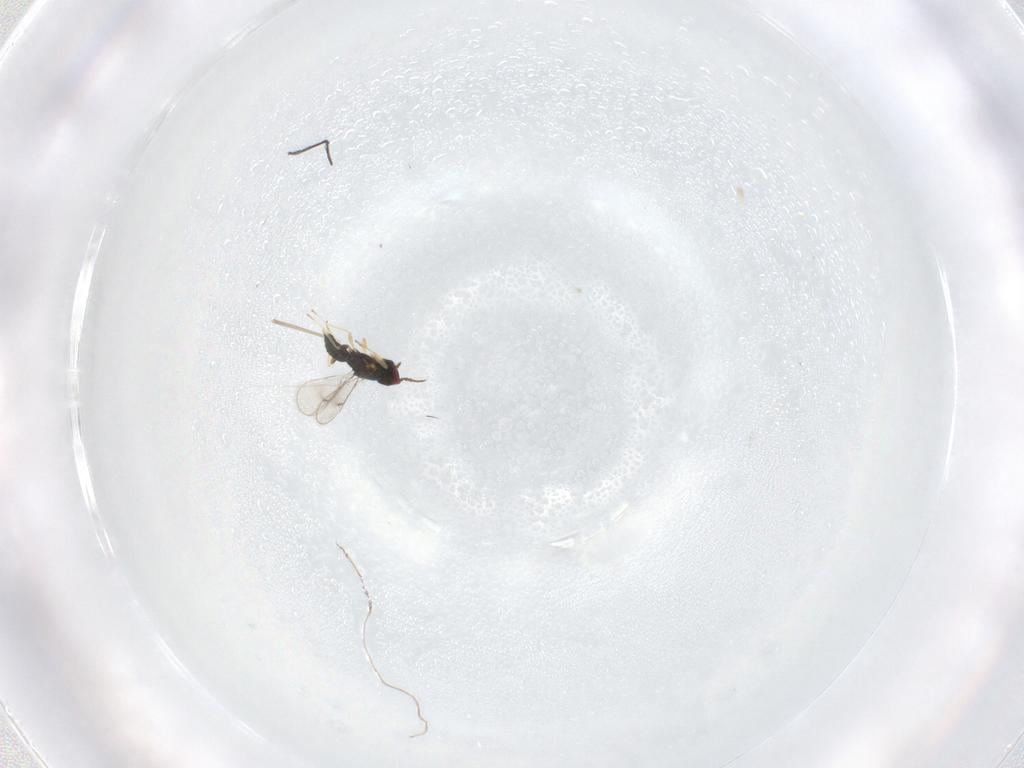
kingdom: Animalia
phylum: Arthropoda
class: Insecta
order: Hymenoptera
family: Eulophidae
